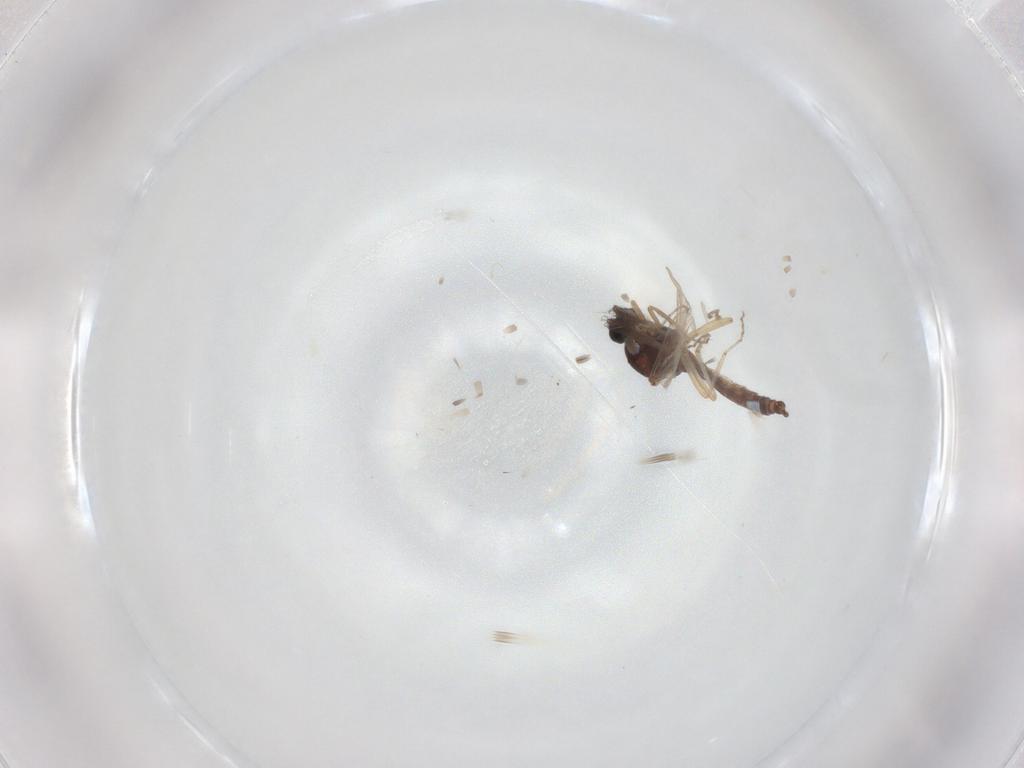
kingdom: Animalia
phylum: Arthropoda
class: Insecta
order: Diptera
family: Ceratopogonidae
